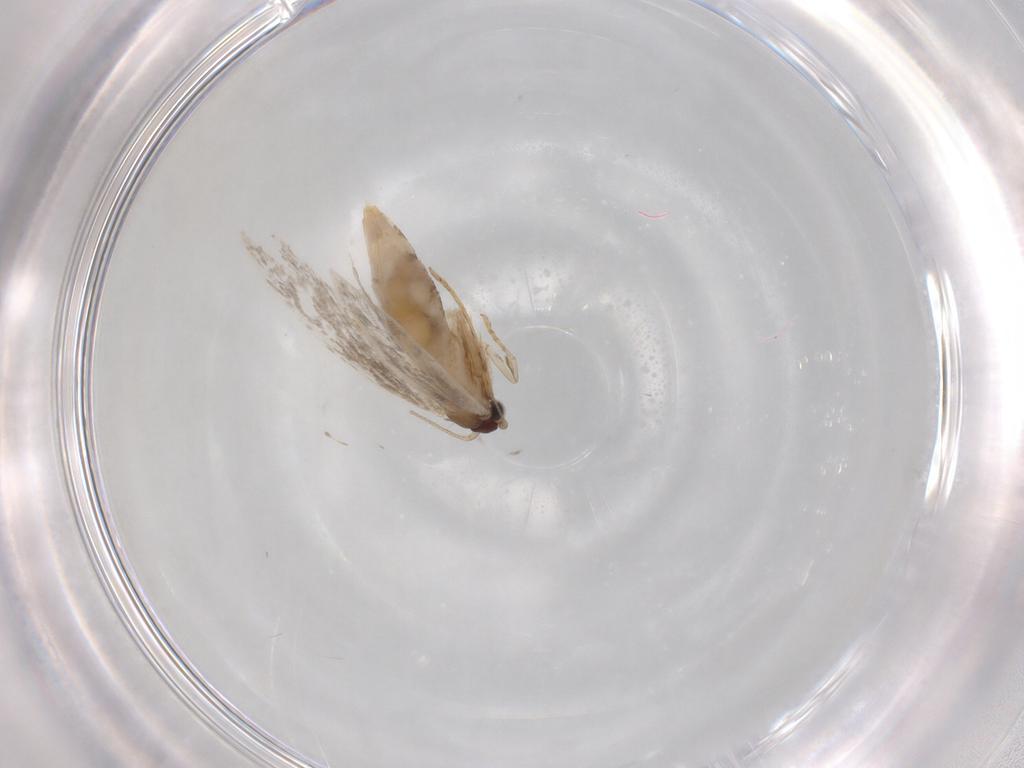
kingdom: Animalia
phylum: Arthropoda
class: Insecta
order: Lepidoptera
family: Tineidae
